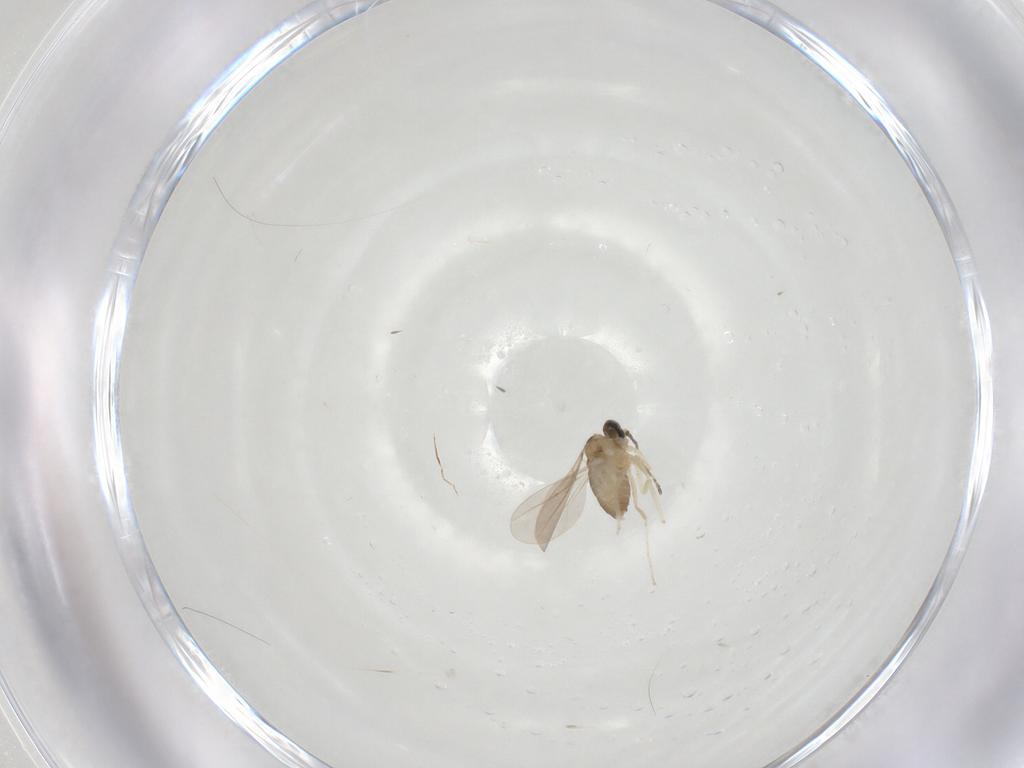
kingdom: Animalia
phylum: Arthropoda
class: Insecta
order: Diptera
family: Cecidomyiidae
